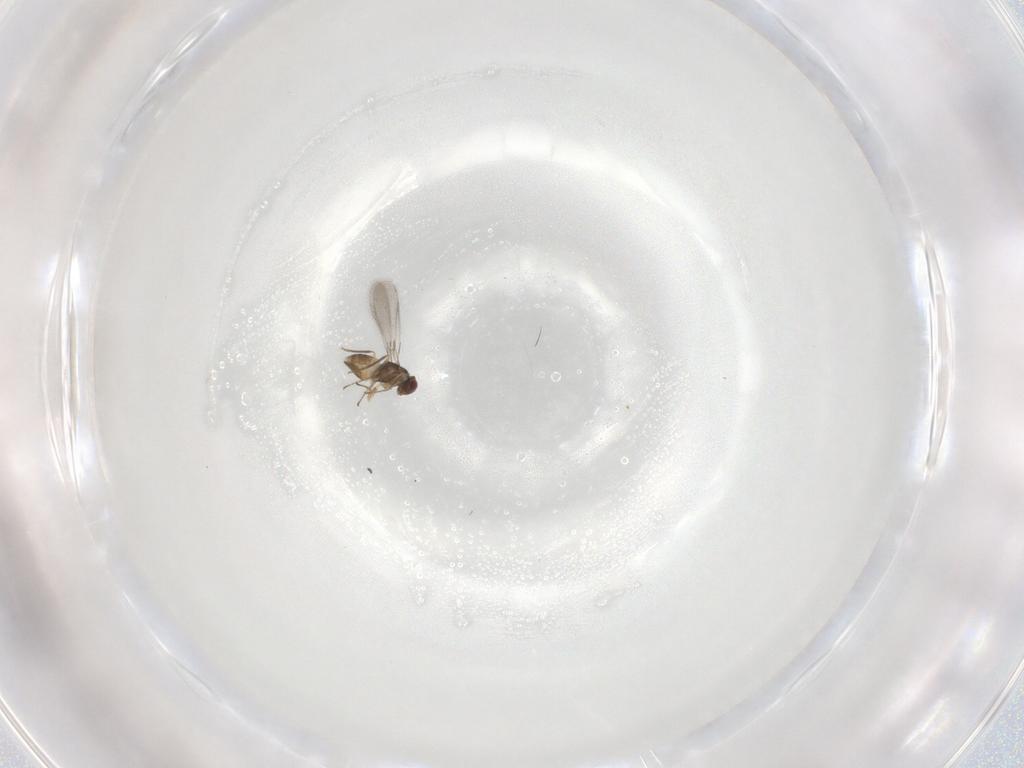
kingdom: Animalia
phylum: Arthropoda
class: Insecta
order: Hymenoptera
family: Mymaridae
